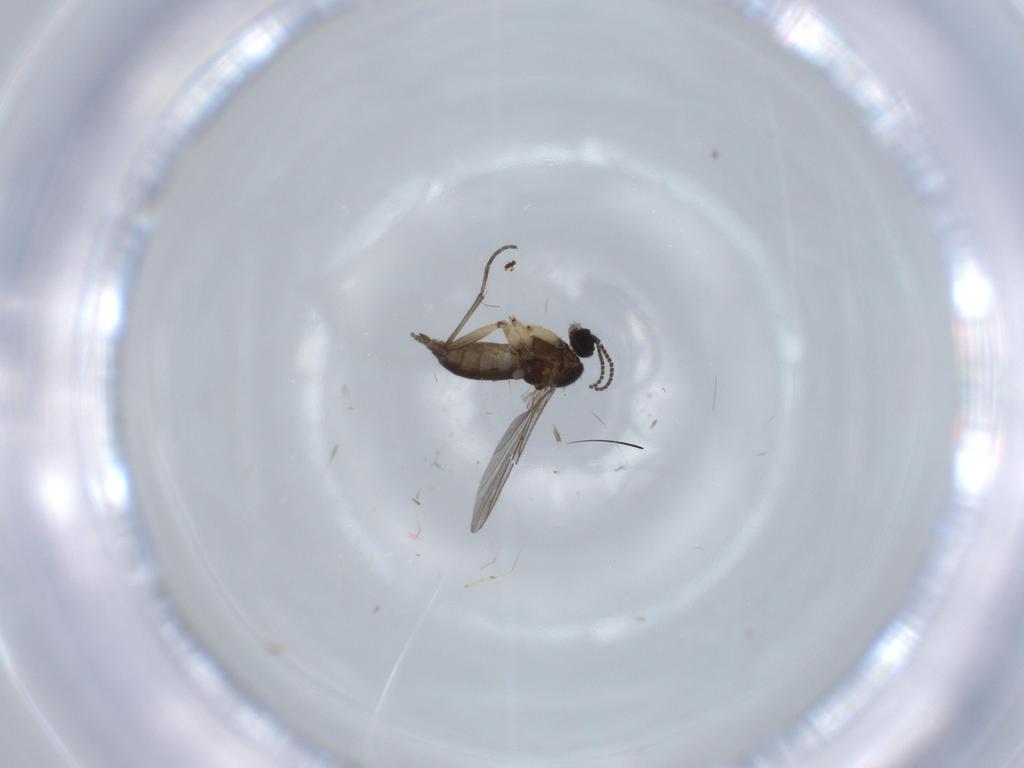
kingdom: Animalia
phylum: Arthropoda
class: Insecta
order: Diptera
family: Sciaridae
